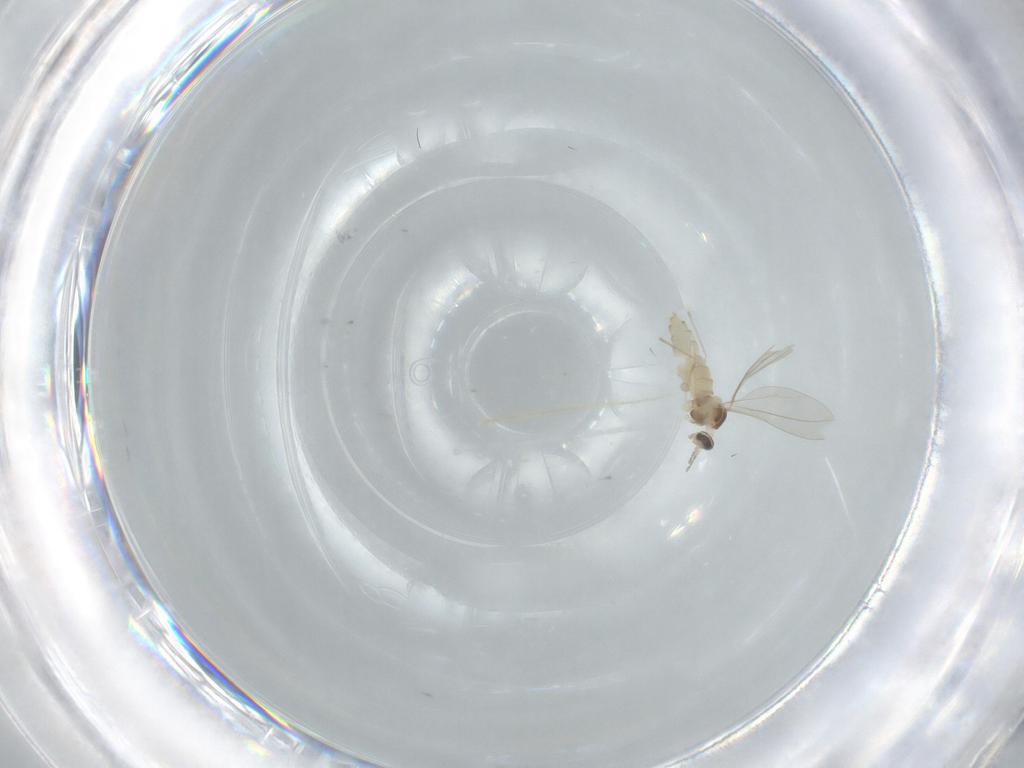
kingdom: Animalia
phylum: Arthropoda
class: Insecta
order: Diptera
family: Cecidomyiidae
